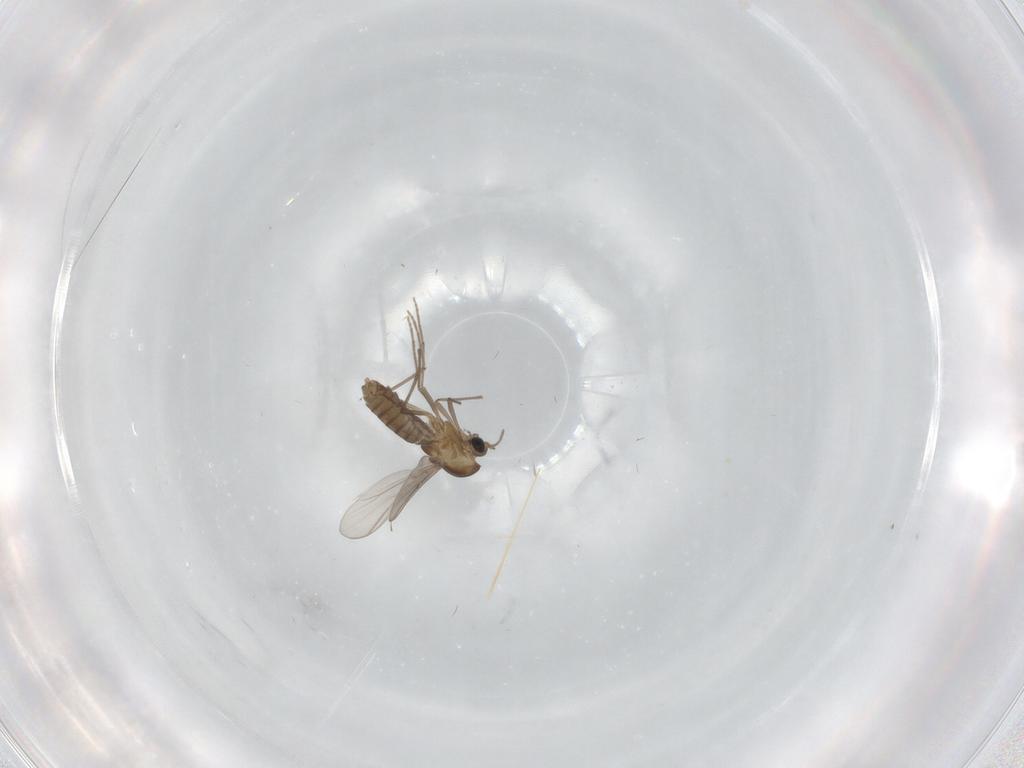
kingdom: Animalia
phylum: Arthropoda
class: Insecta
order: Diptera
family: Chironomidae
